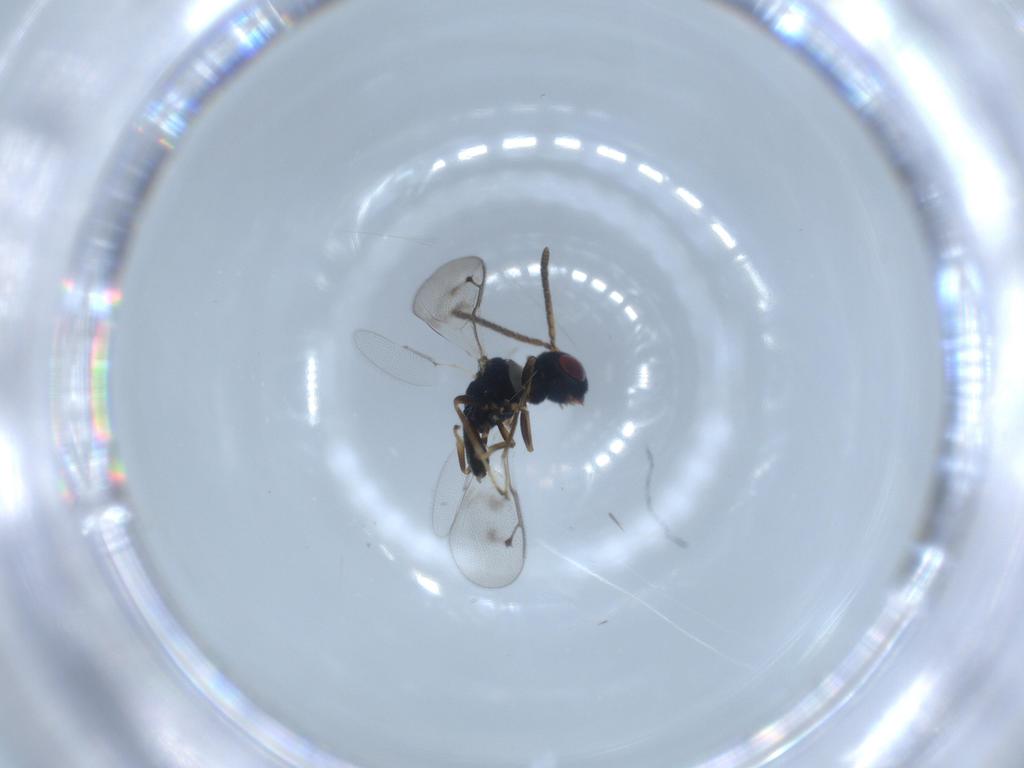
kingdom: Animalia
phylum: Arthropoda
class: Insecta
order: Hymenoptera
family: Pteromalidae
